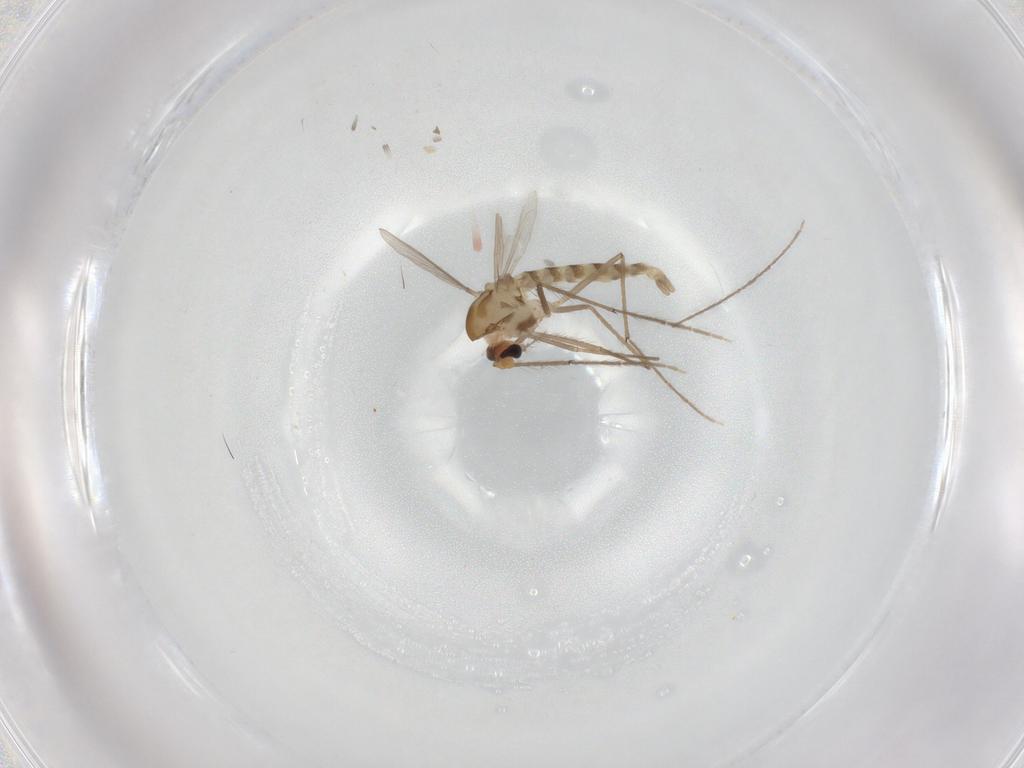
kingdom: Animalia
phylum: Arthropoda
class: Insecta
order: Diptera
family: Chironomidae
